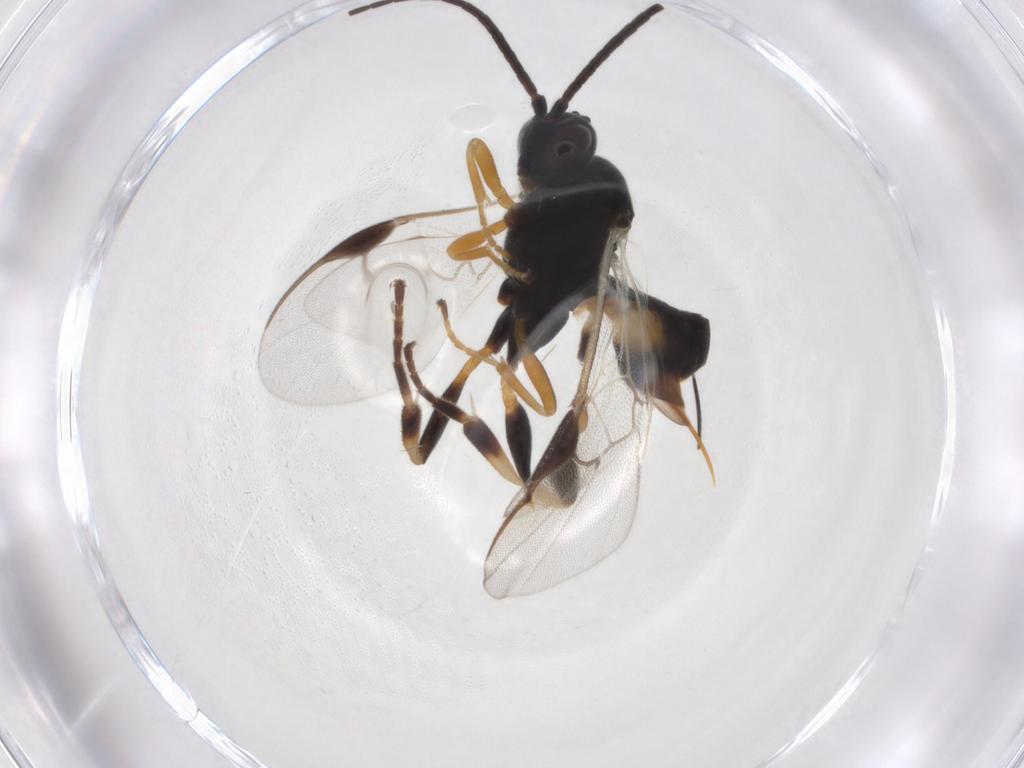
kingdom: Animalia
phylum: Arthropoda
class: Insecta
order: Hymenoptera
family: Braconidae
